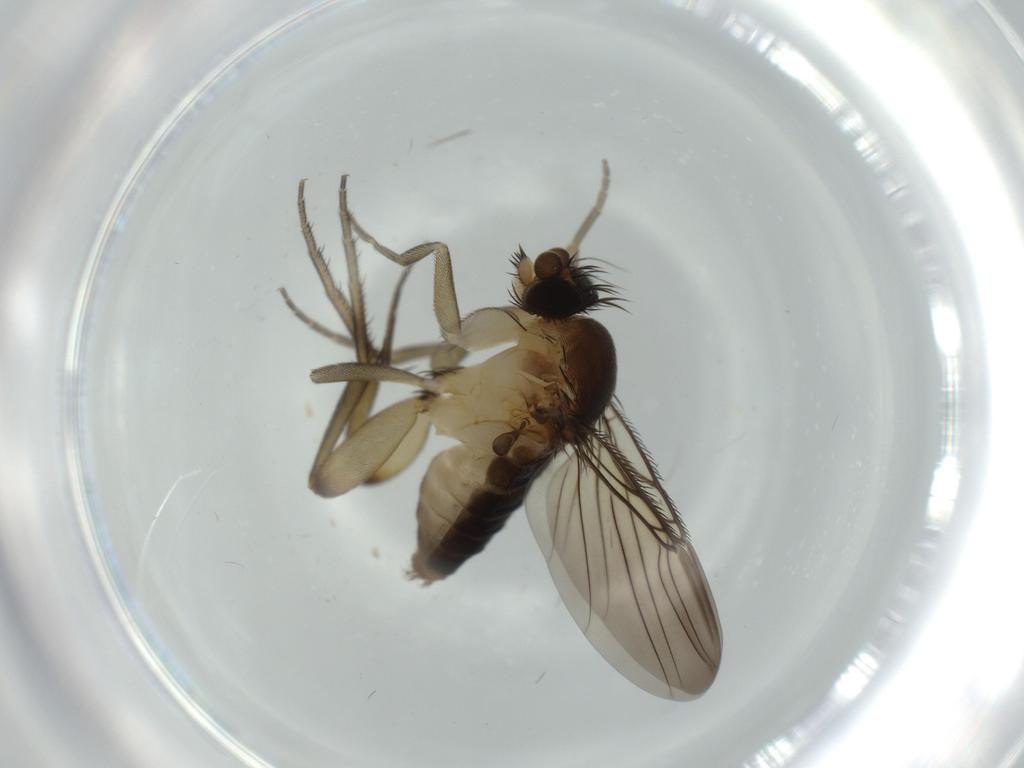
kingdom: Animalia
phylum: Arthropoda
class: Insecta
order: Diptera
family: Phoridae
